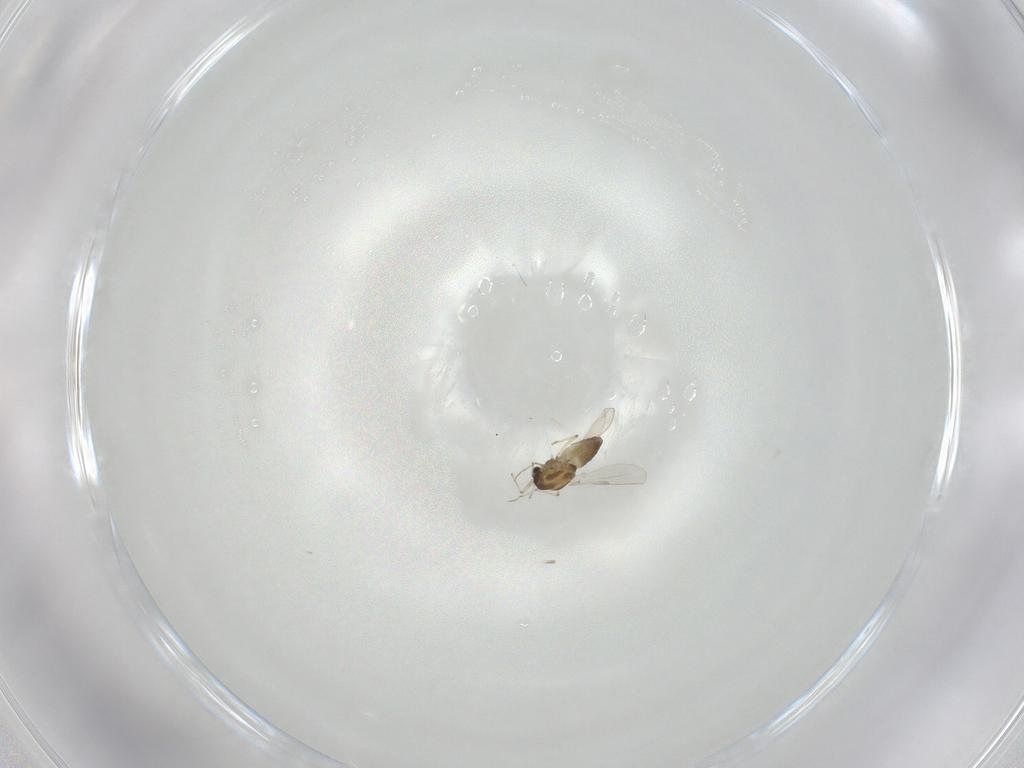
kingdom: Animalia
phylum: Arthropoda
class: Insecta
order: Diptera
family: Chironomidae
